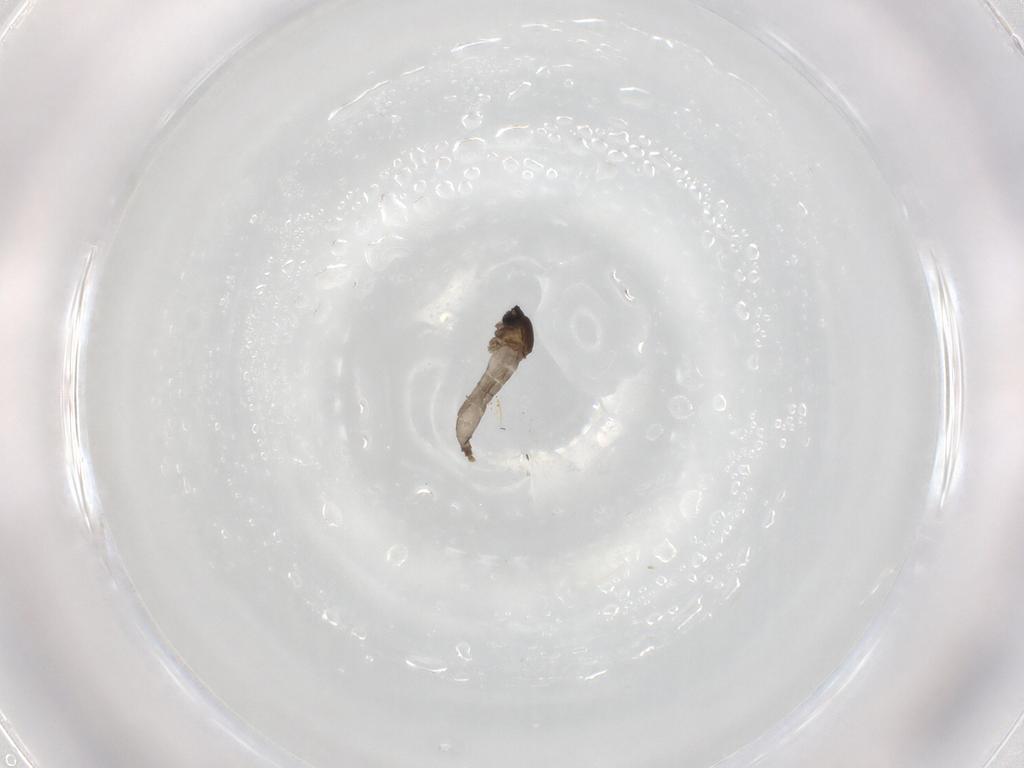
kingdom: Animalia
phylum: Arthropoda
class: Insecta
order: Diptera
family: Cecidomyiidae
